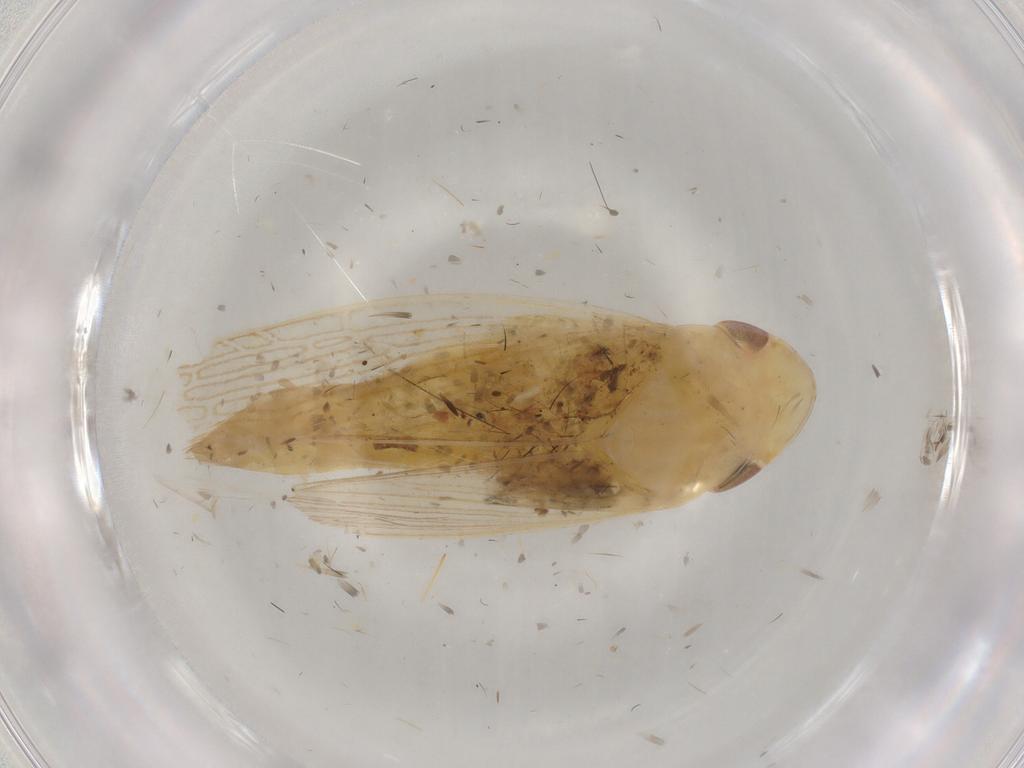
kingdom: Animalia
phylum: Arthropoda
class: Insecta
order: Hemiptera
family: Cicadellidae
